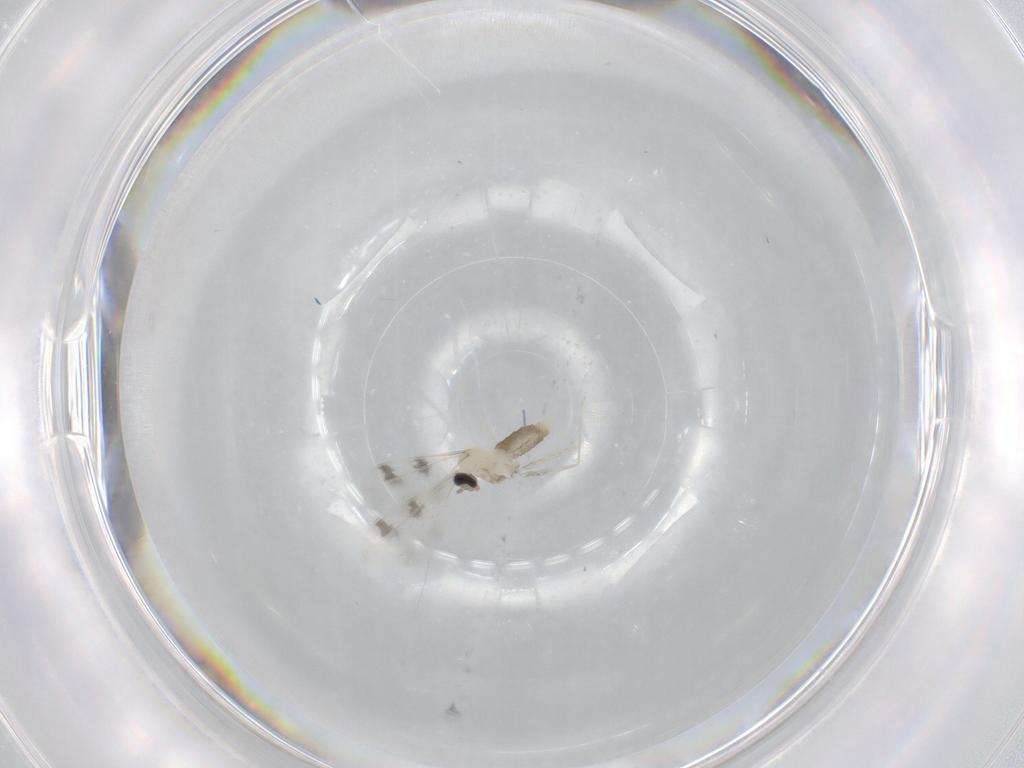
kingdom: Animalia
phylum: Arthropoda
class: Insecta
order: Diptera
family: Cecidomyiidae
